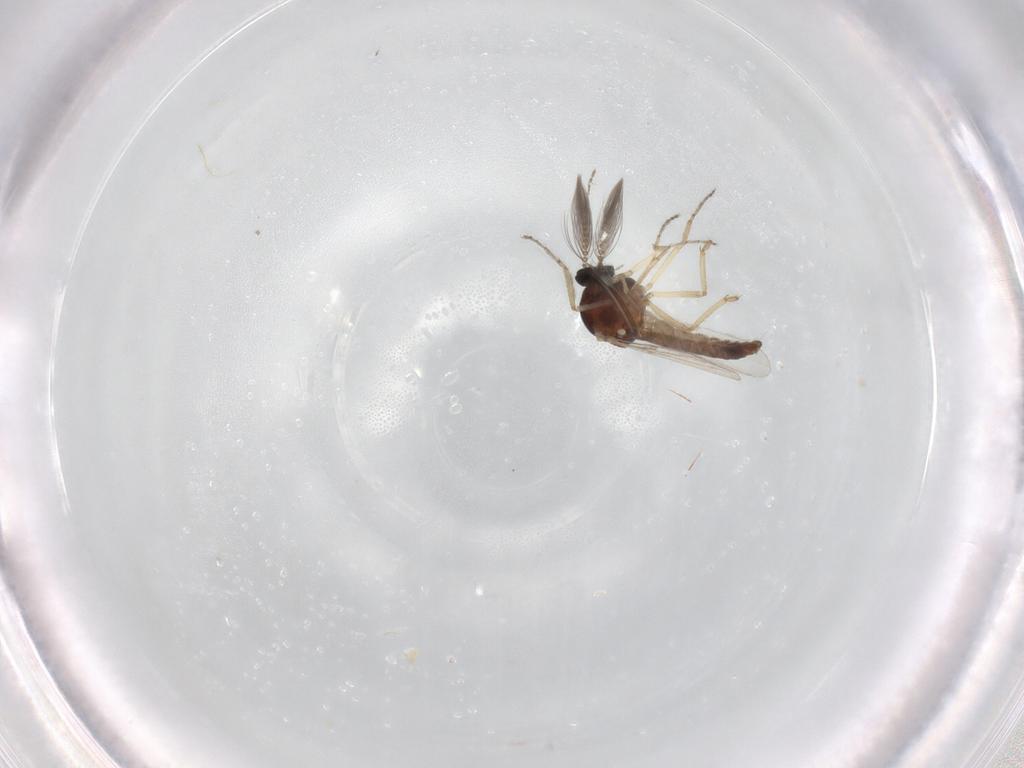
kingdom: Animalia
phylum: Arthropoda
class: Insecta
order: Diptera
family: Ceratopogonidae
